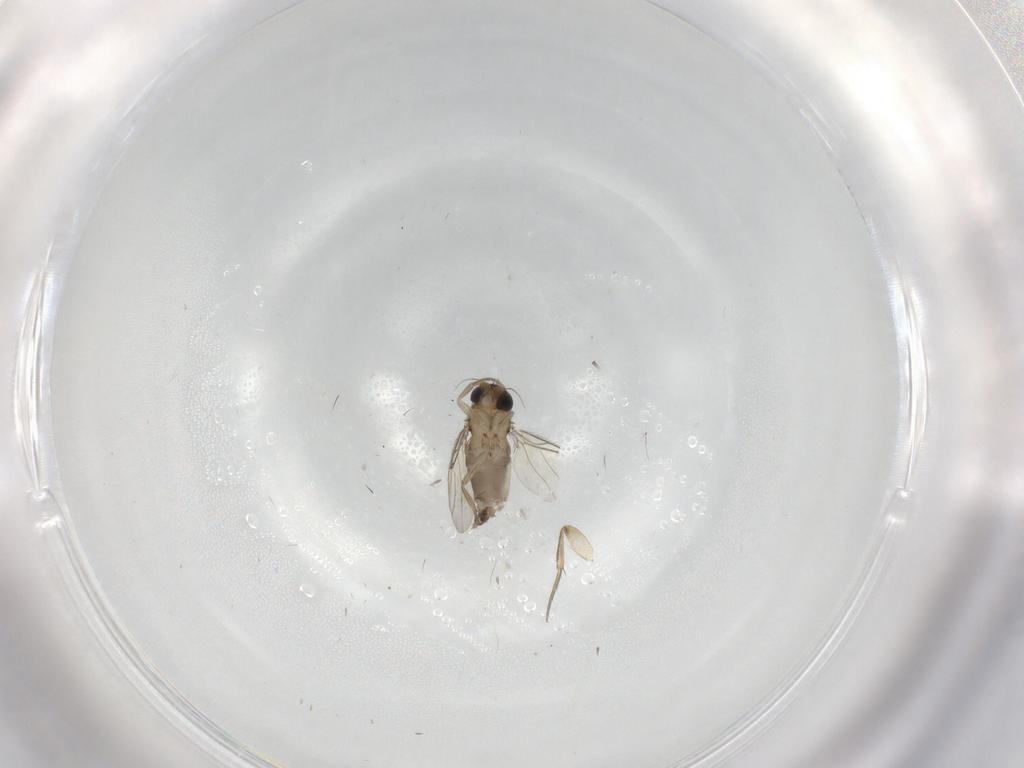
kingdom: Animalia
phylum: Arthropoda
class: Insecta
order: Diptera
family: Phoridae
